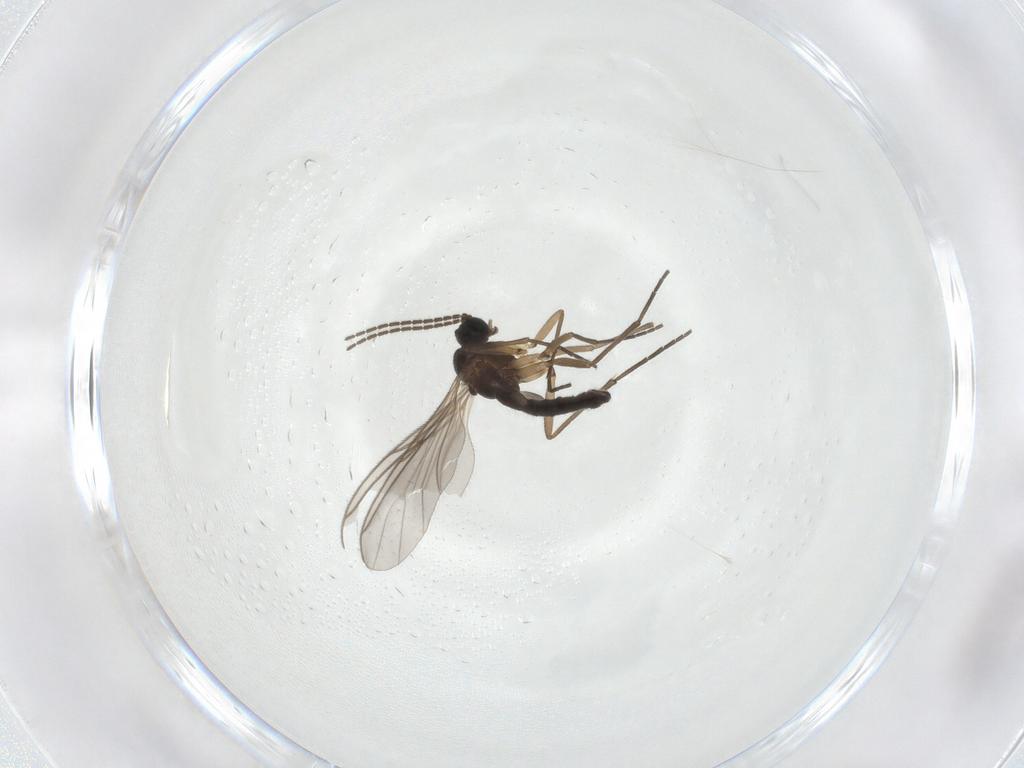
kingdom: Animalia
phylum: Arthropoda
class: Insecta
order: Diptera
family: Sciaridae
